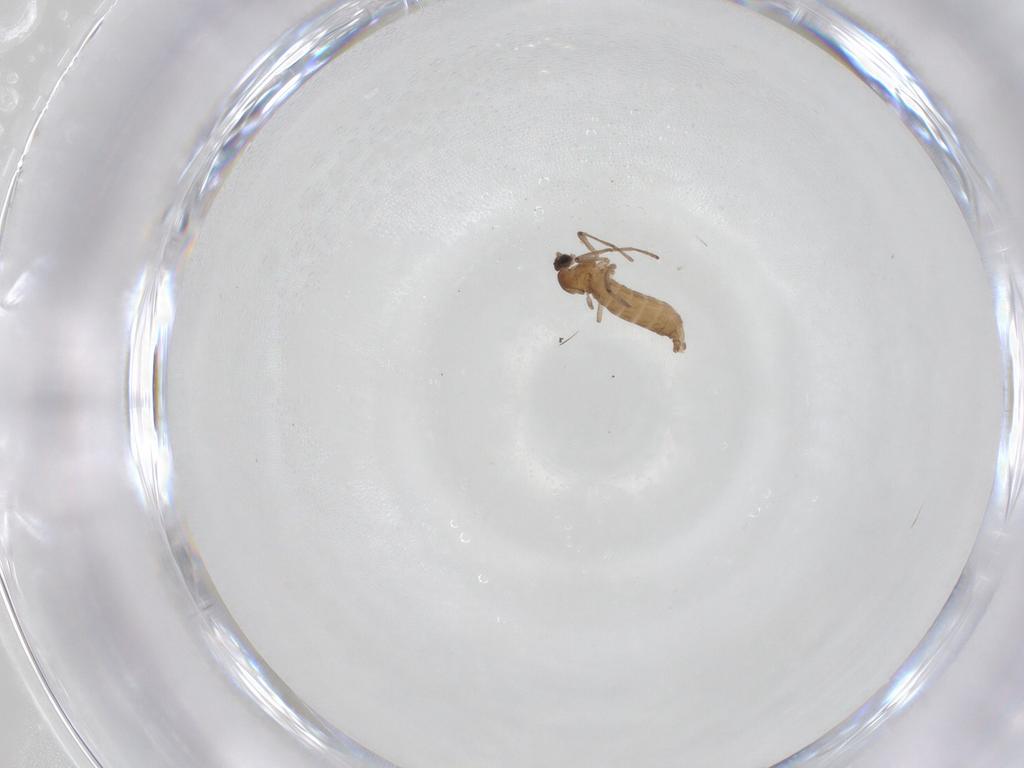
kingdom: Animalia
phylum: Arthropoda
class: Insecta
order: Diptera
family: Cecidomyiidae
